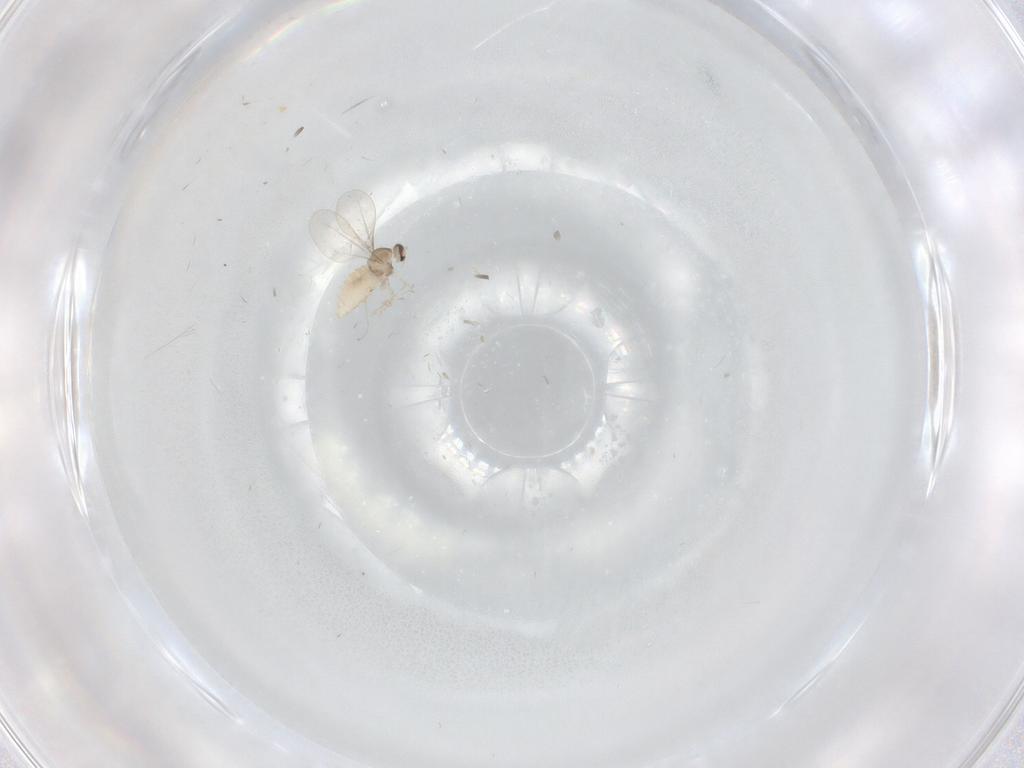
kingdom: Animalia
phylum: Arthropoda
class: Insecta
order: Diptera
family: Cecidomyiidae
